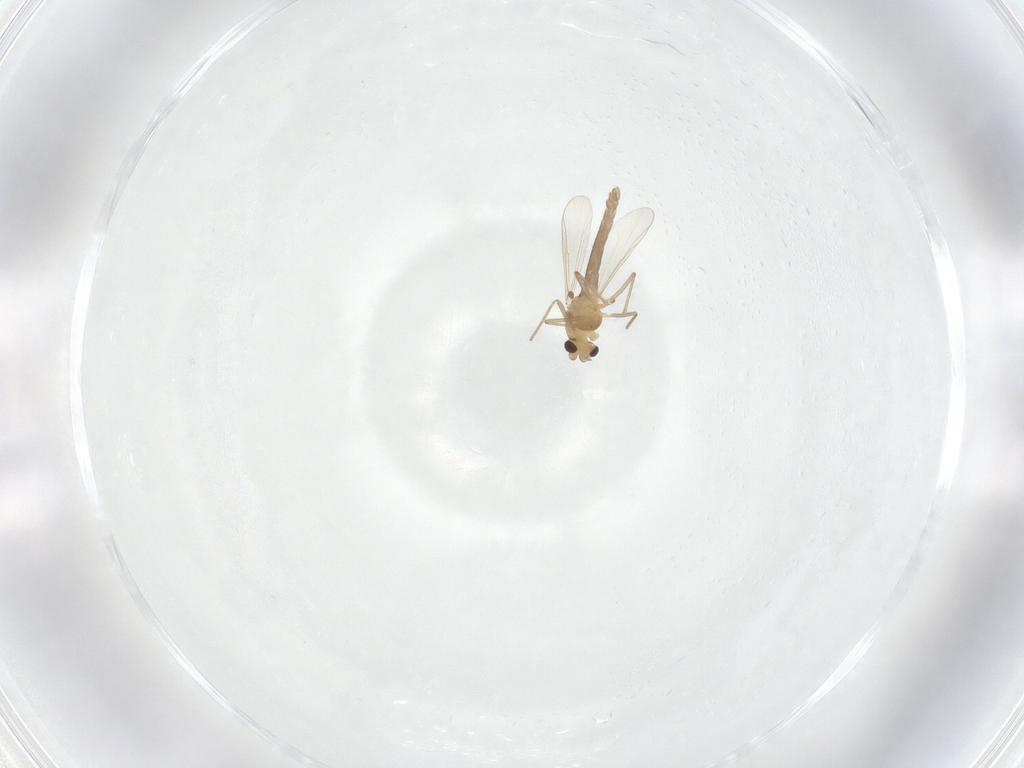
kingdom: Animalia
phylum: Arthropoda
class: Insecta
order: Diptera
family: Chironomidae
